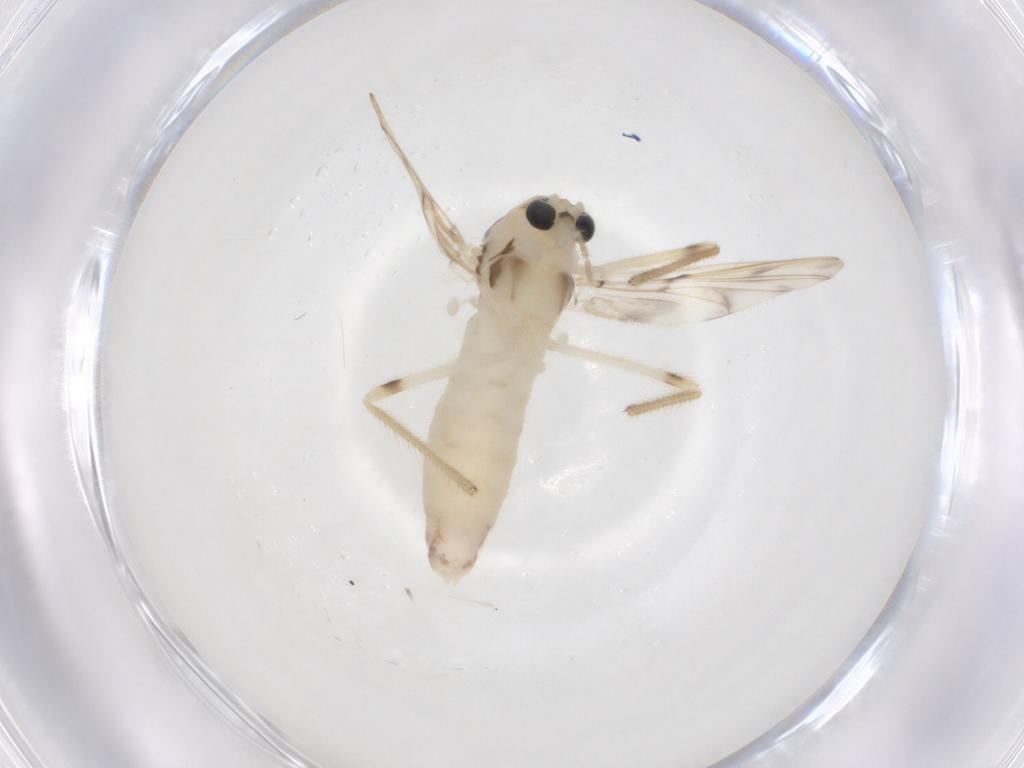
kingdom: Animalia
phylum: Arthropoda
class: Insecta
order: Diptera
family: Chironomidae
